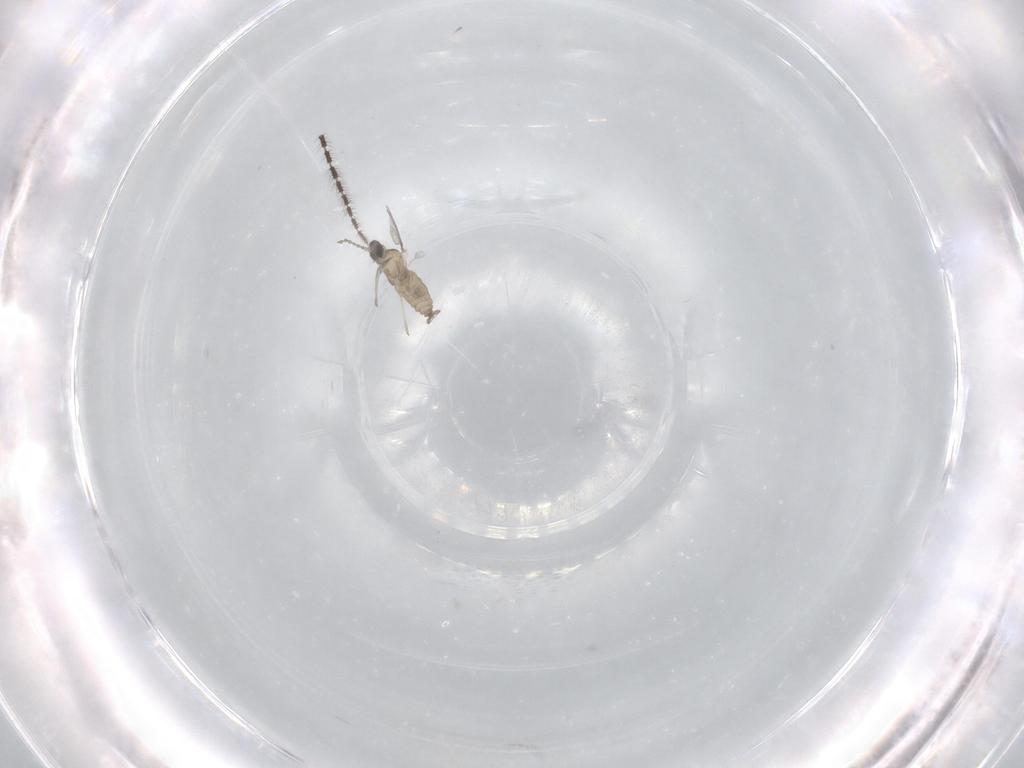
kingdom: Animalia
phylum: Arthropoda
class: Insecta
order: Diptera
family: Cecidomyiidae
